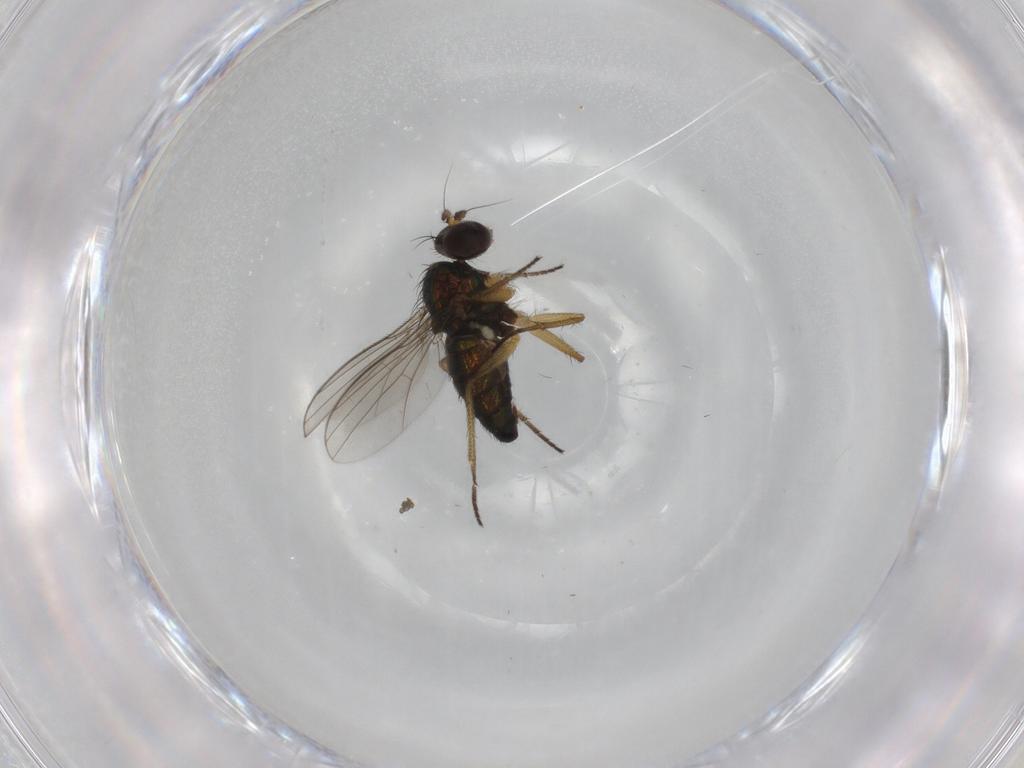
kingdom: Animalia
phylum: Arthropoda
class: Insecta
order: Diptera
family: Dolichopodidae
